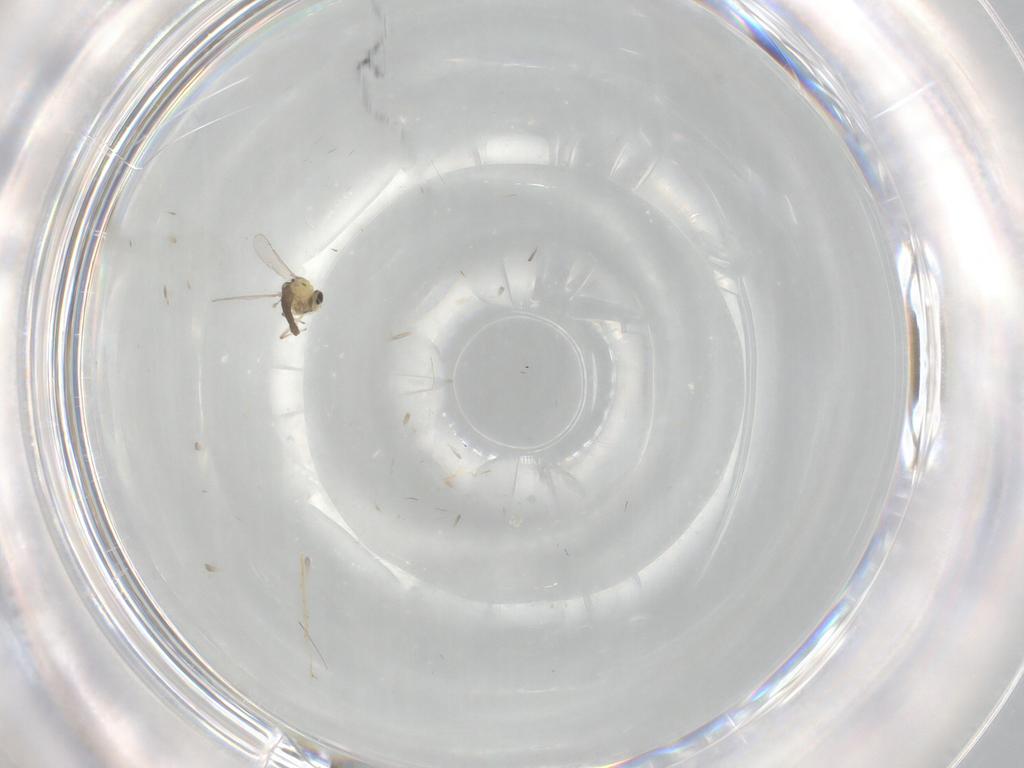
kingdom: Animalia
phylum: Arthropoda
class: Insecta
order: Diptera
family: Chironomidae
